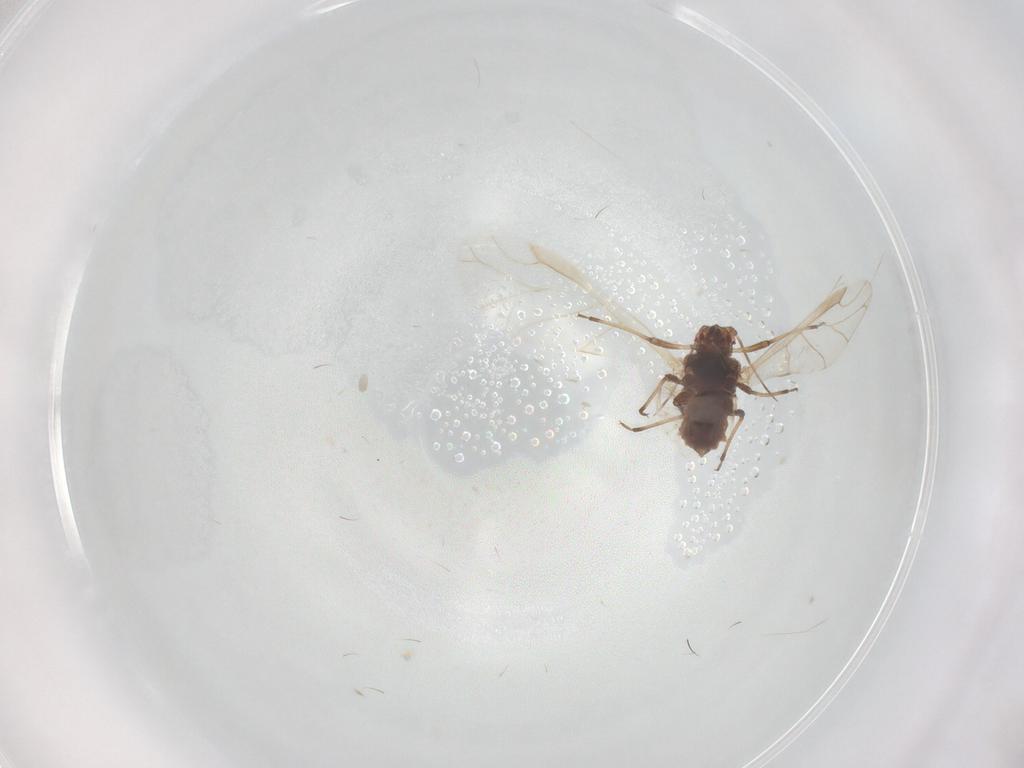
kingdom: Animalia
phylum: Arthropoda
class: Insecta
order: Hemiptera
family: Aphididae
